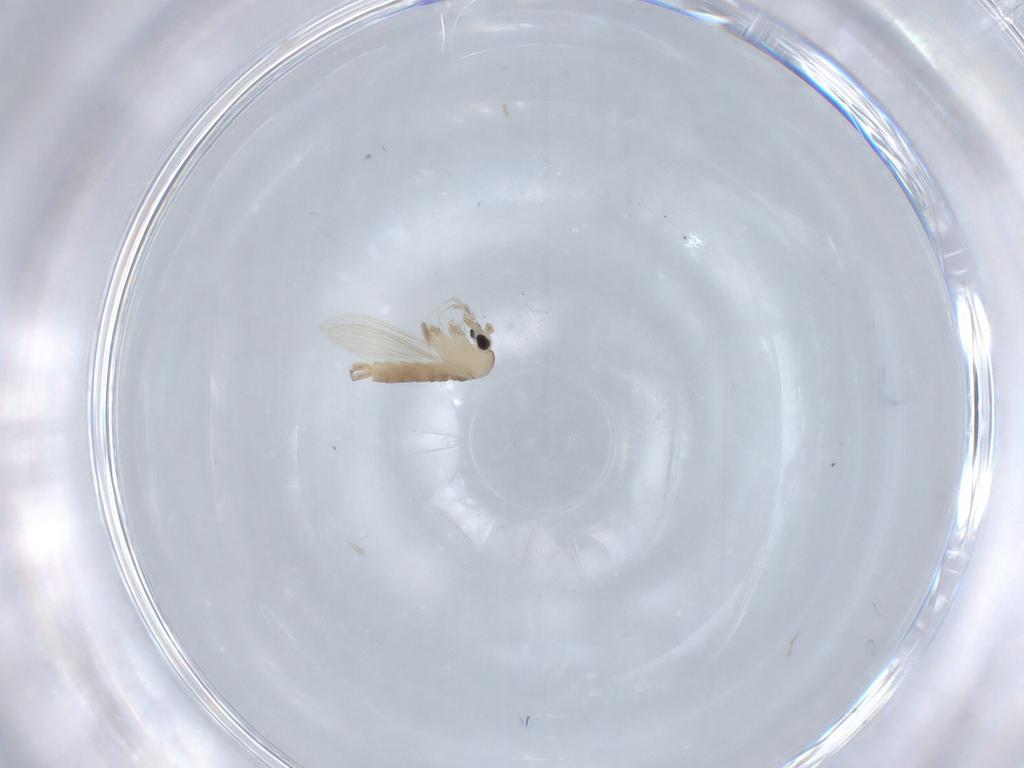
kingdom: Animalia
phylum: Arthropoda
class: Insecta
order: Diptera
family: Psychodidae
